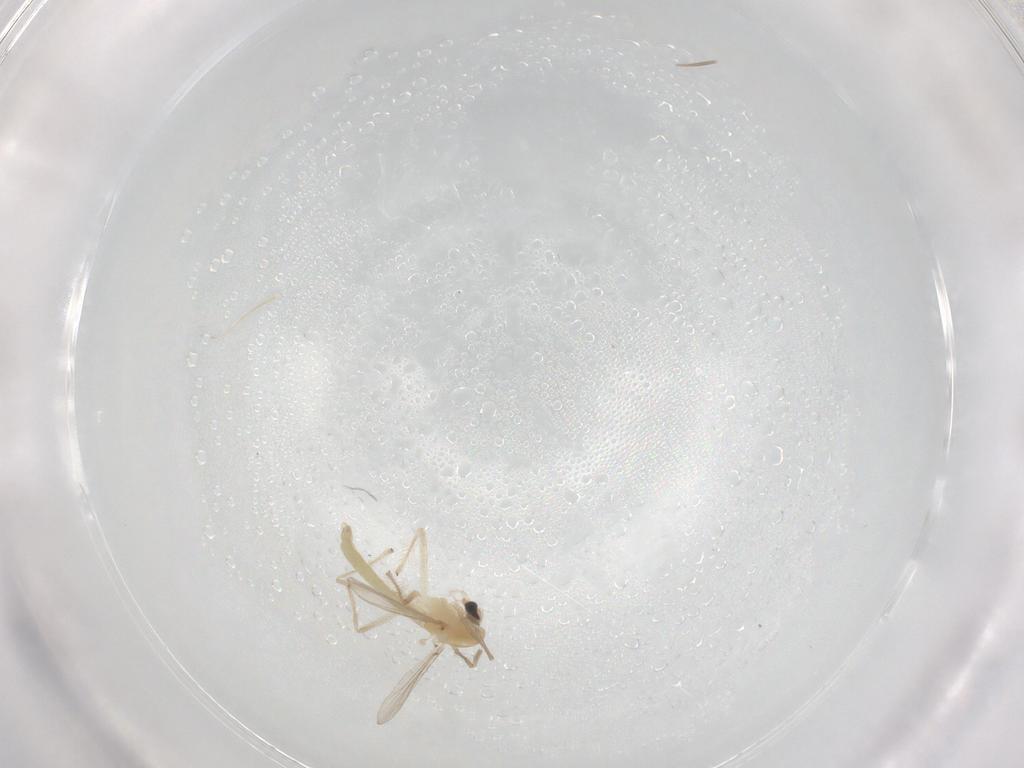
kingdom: Animalia
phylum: Arthropoda
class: Insecta
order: Diptera
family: Chironomidae
